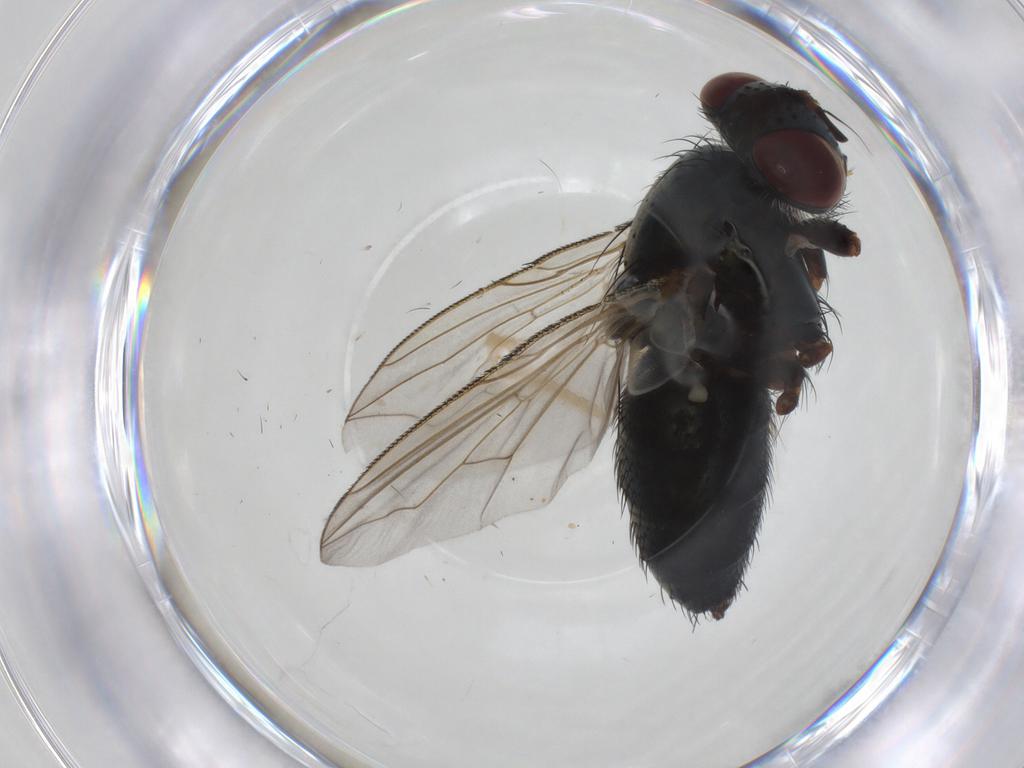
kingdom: Animalia
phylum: Arthropoda
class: Insecta
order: Diptera
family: Tachinidae
